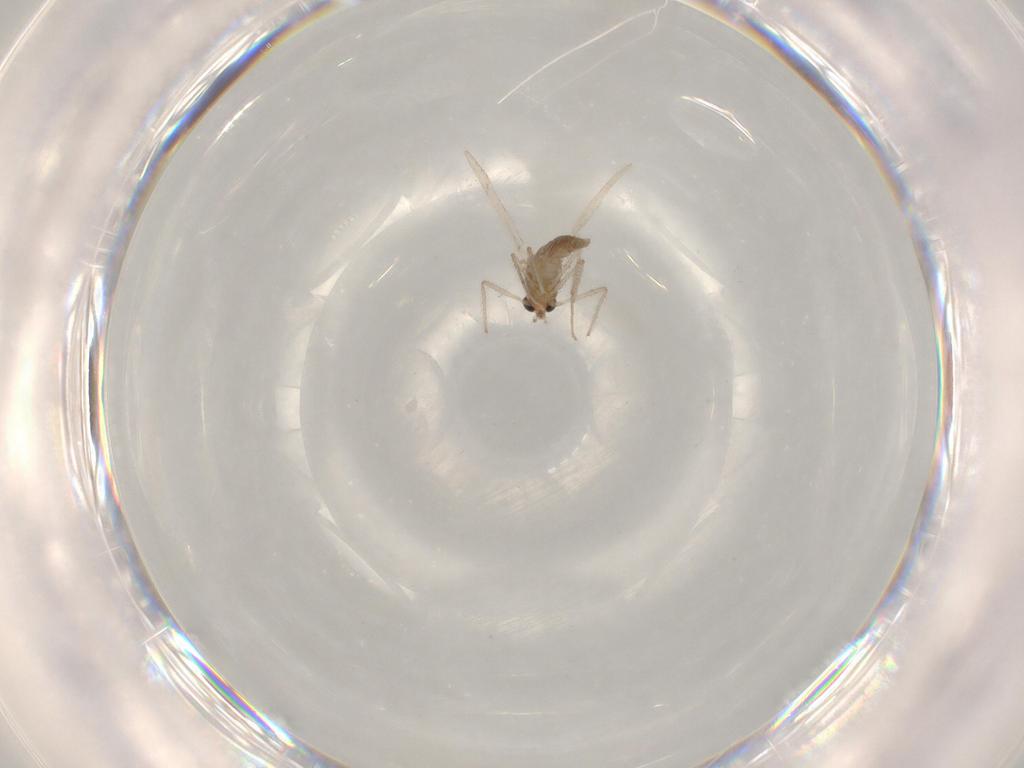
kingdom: Animalia
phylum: Arthropoda
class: Insecta
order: Diptera
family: Chironomidae
